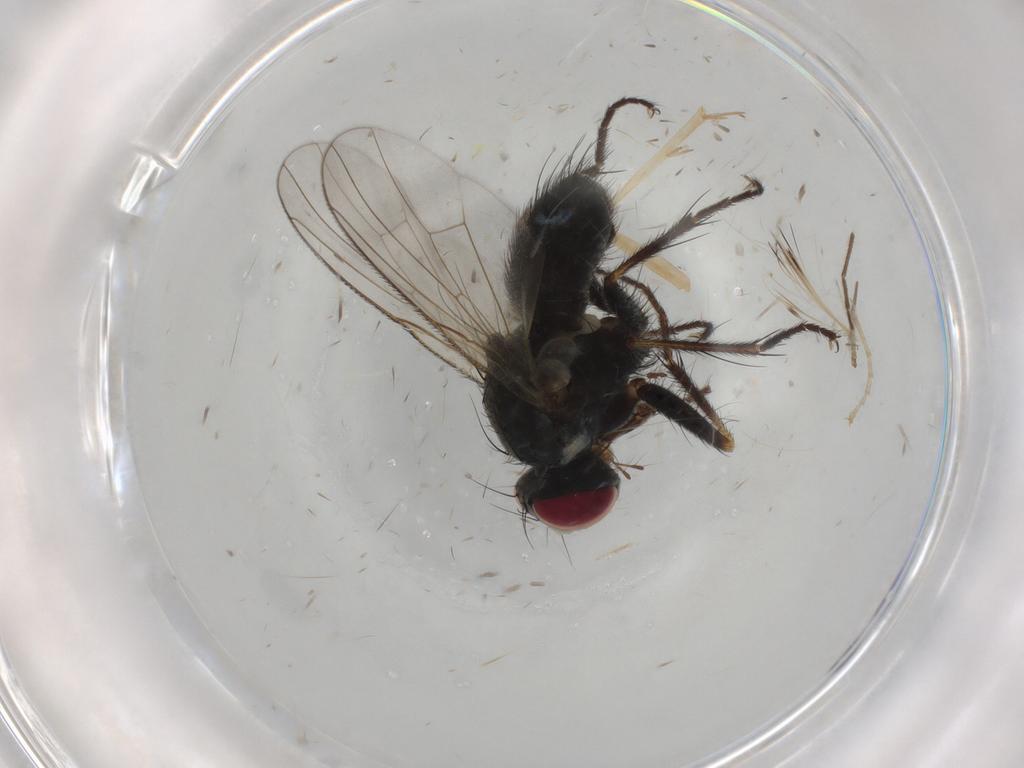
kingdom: Animalia
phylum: Arthropoda
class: Insecta
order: Diptera
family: Muscidae
